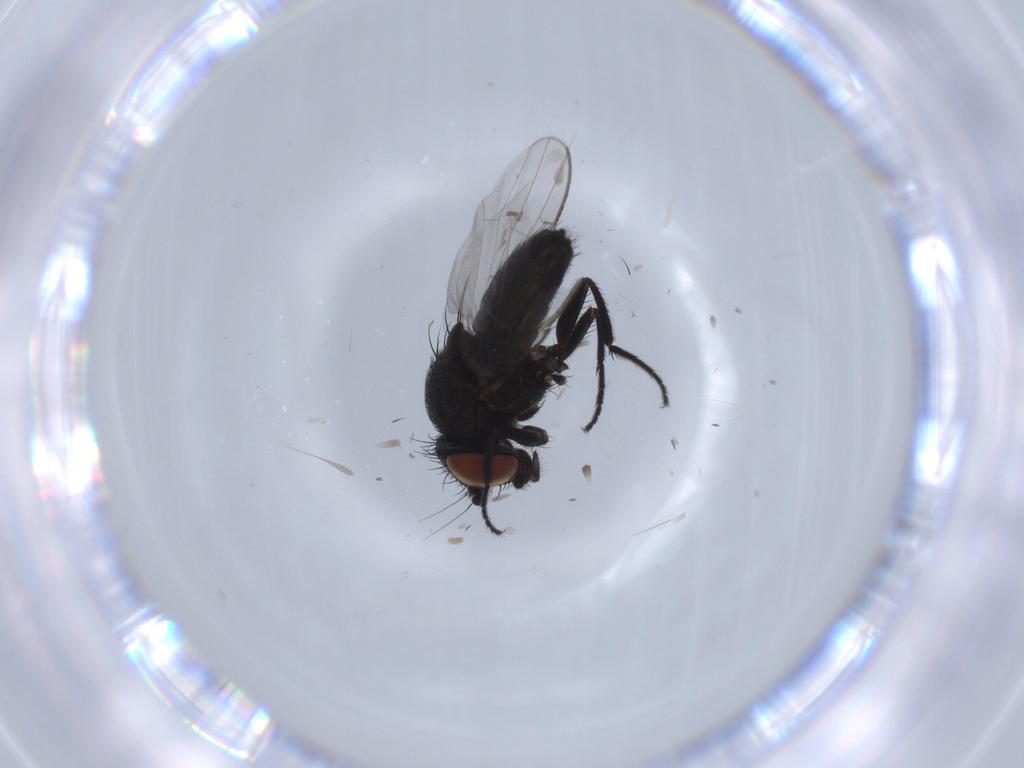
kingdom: Animalia
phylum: Arthropoda
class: Insecta
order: Diptera
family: Milichiidae
